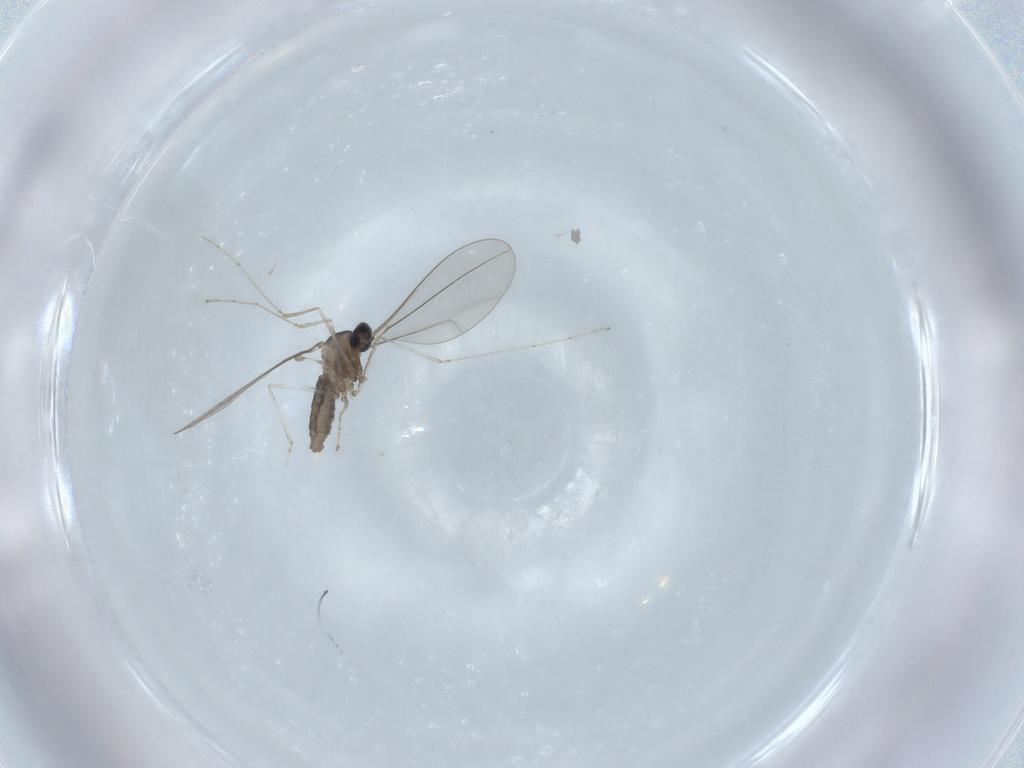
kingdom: Animalia
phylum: Arthropoda
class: Insecta
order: Diptera
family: Cecidomyiidae
